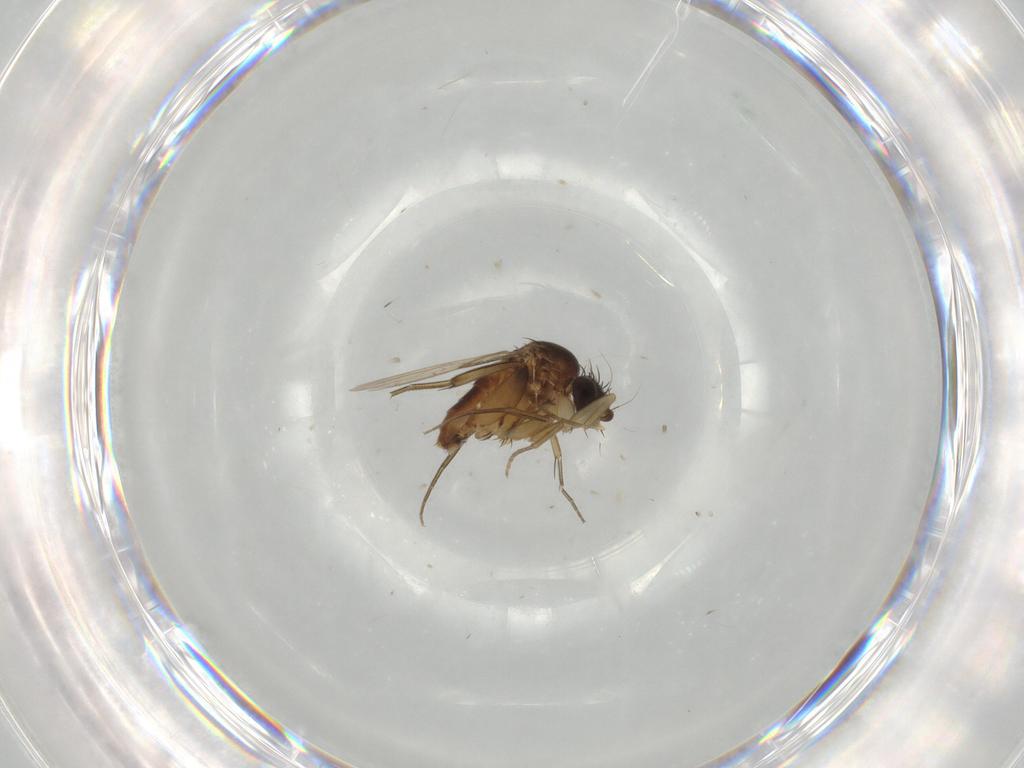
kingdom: Animalia
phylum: Arthropoda
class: Insecta
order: Diptera
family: Phoridae
